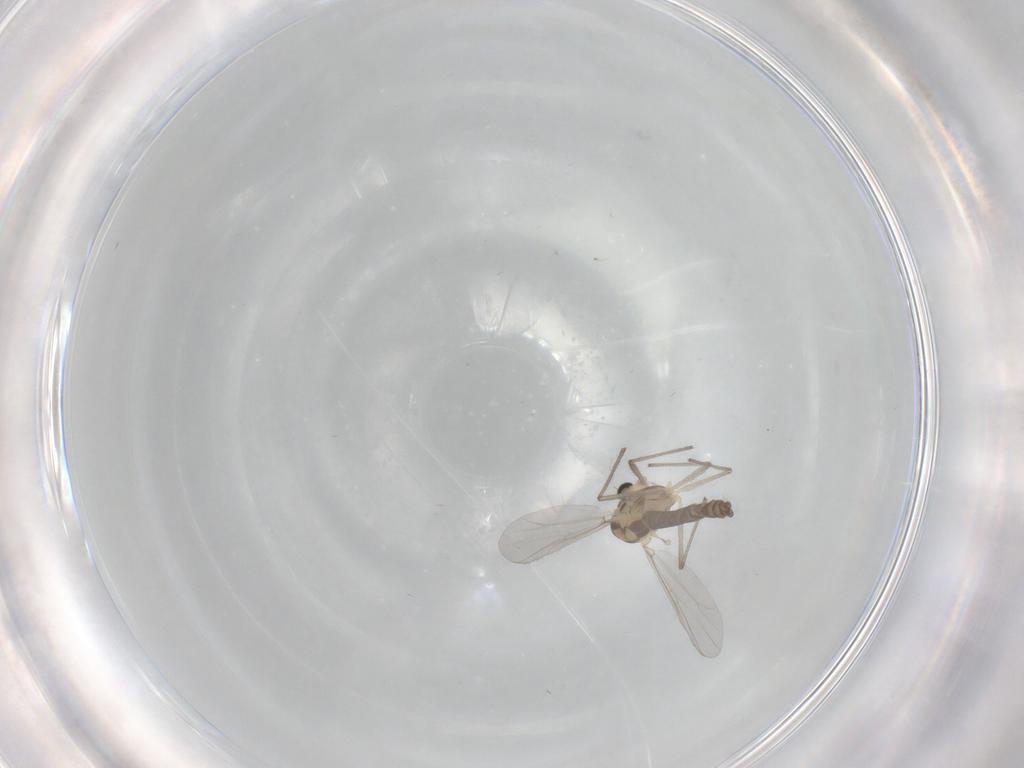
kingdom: Animalia
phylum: Arthropoda
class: Insecta
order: Diptera
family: Chironomidae
